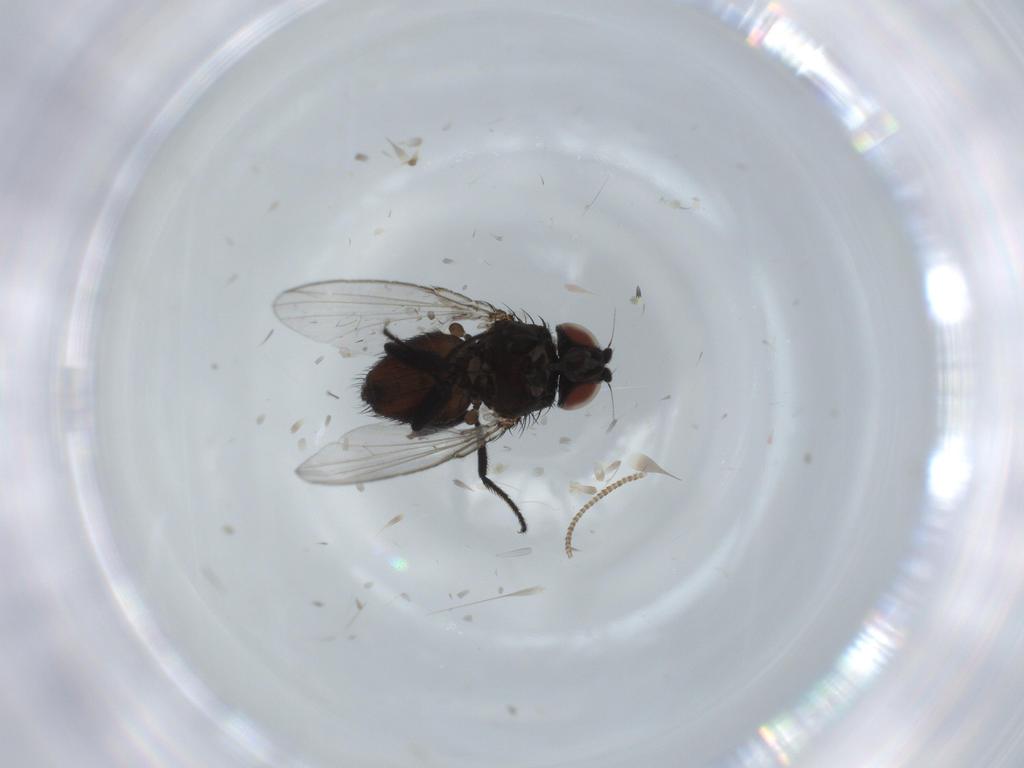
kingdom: Animalia
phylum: Arthropoda
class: Insecta
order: Diptera
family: Milichiidae
